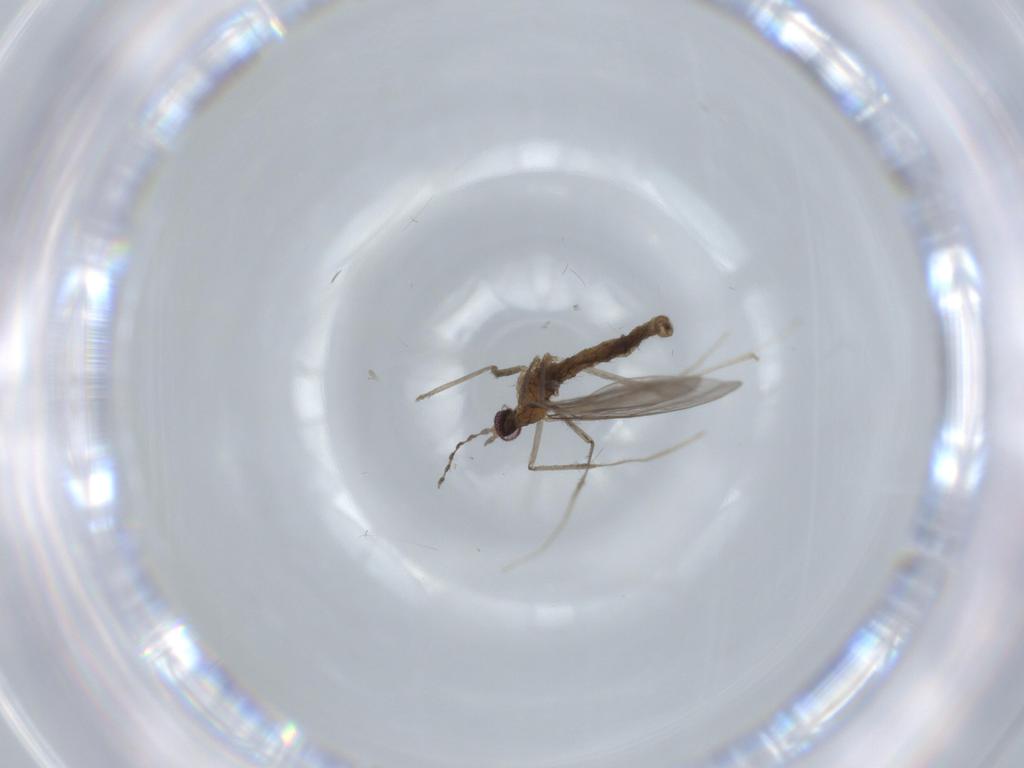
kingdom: Animalia
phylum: Arthropoda
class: Insecta
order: Diptera
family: Cecidomyiidae
